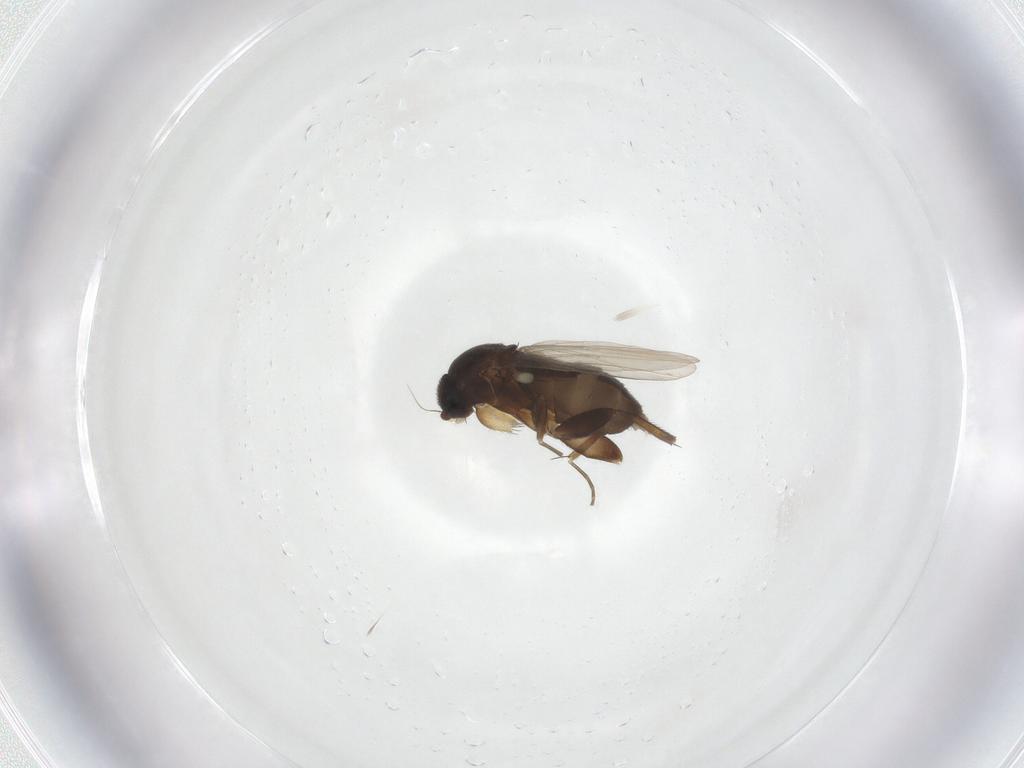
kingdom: Animalia
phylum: Arthropoda
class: Insecta
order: Diptera
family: Phoridae
